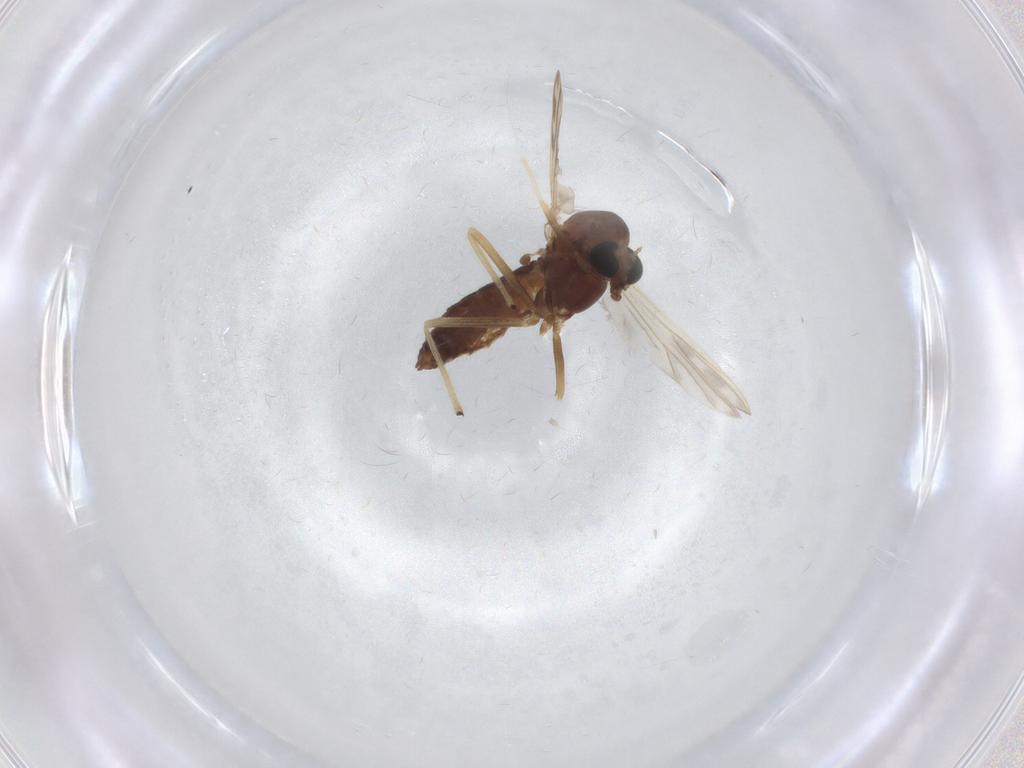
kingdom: Animalia
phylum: Arthropoda
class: Insecta
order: Diptera
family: Chironomidae
